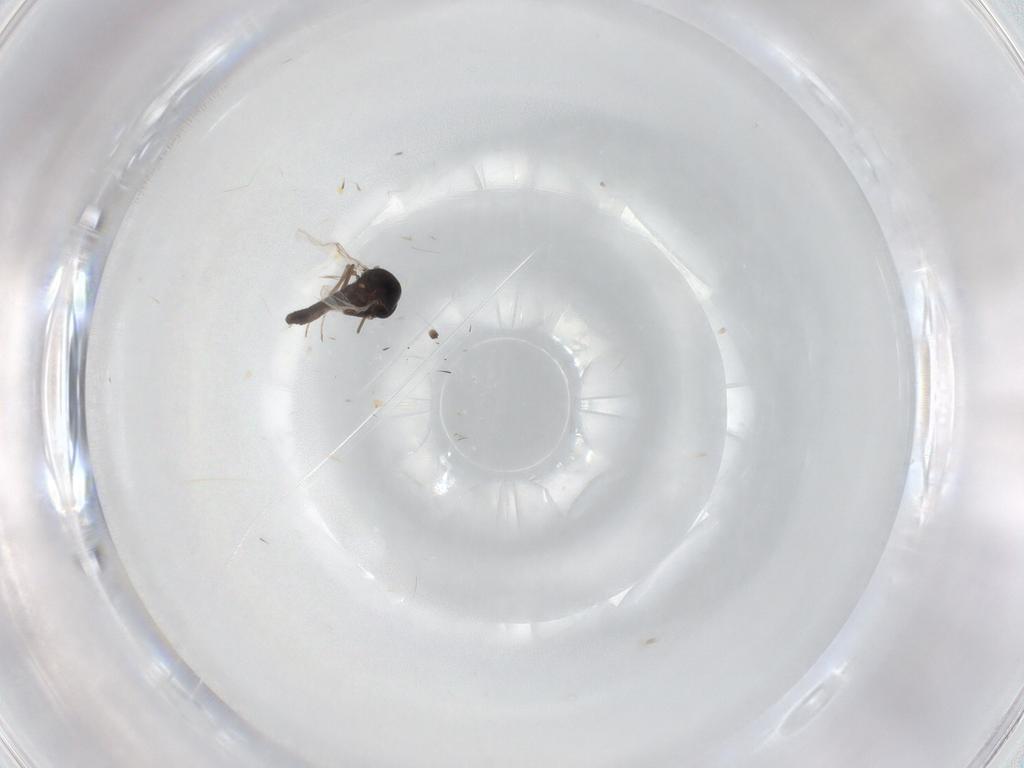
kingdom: Animalia
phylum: Arthropoda
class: Insecta
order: Diptera
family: Ceratopogonidae
